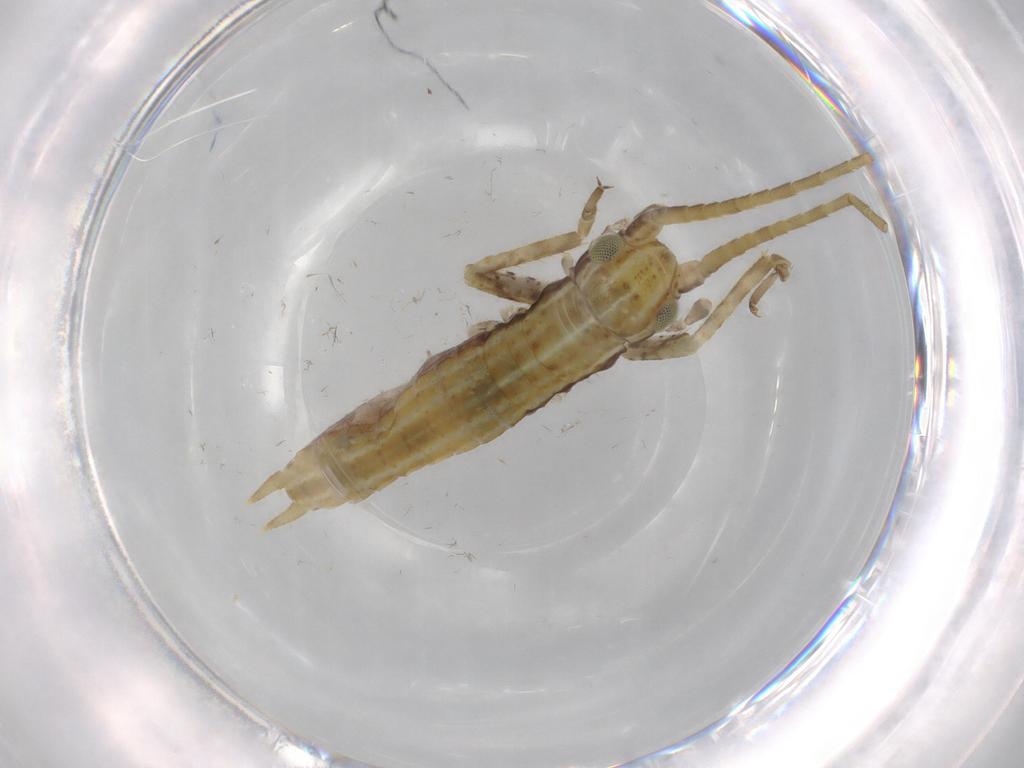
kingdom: Animalia
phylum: Arthropoda
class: Insecta
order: Orthoptera
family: Gryllidae
